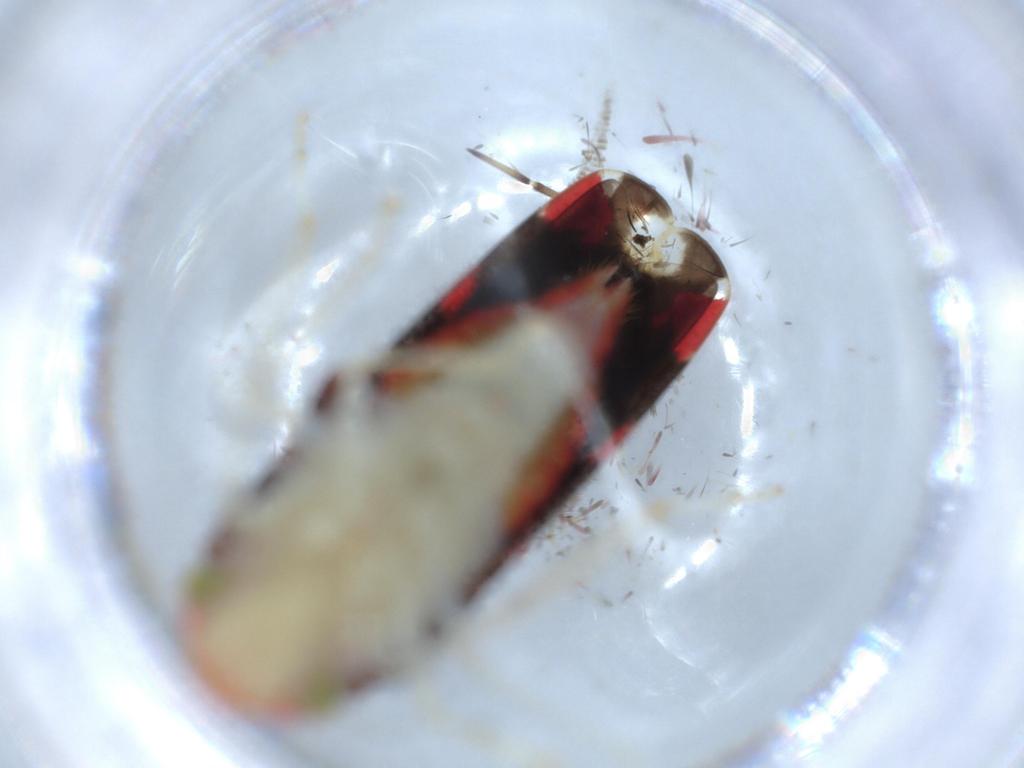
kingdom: Animalia
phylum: Arthropoda
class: Insecta
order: Hemiptera
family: Cicadellidae
